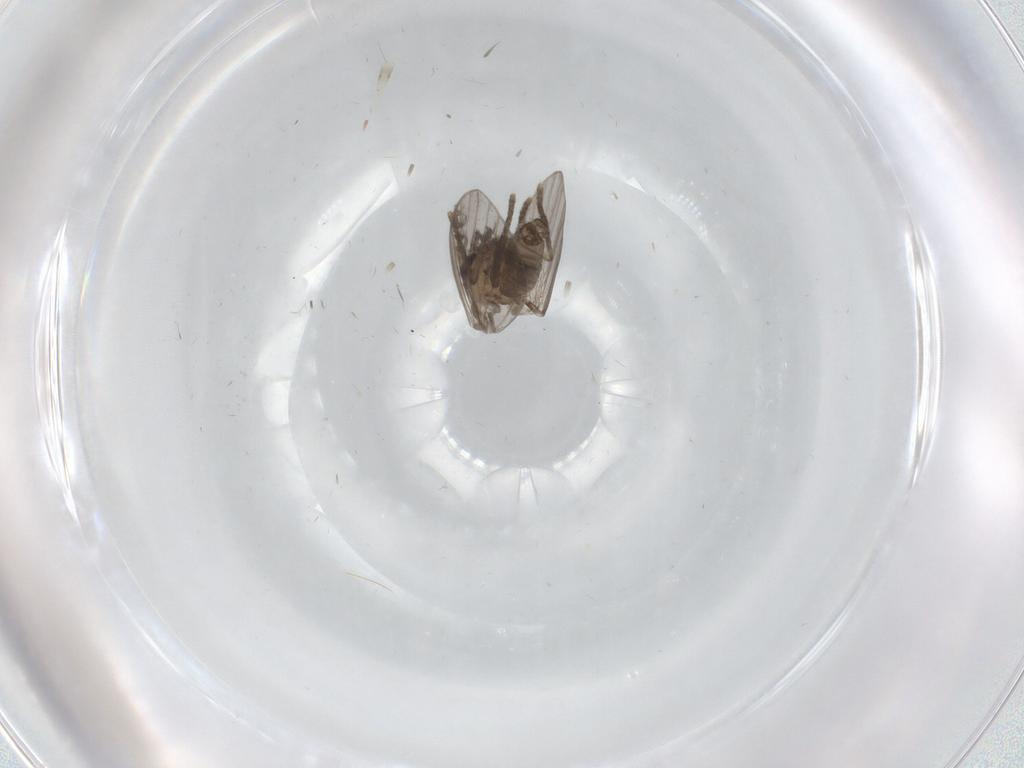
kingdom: Animalia
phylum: Arthropoda
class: Insecta
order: Diptera
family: Psychodidae
